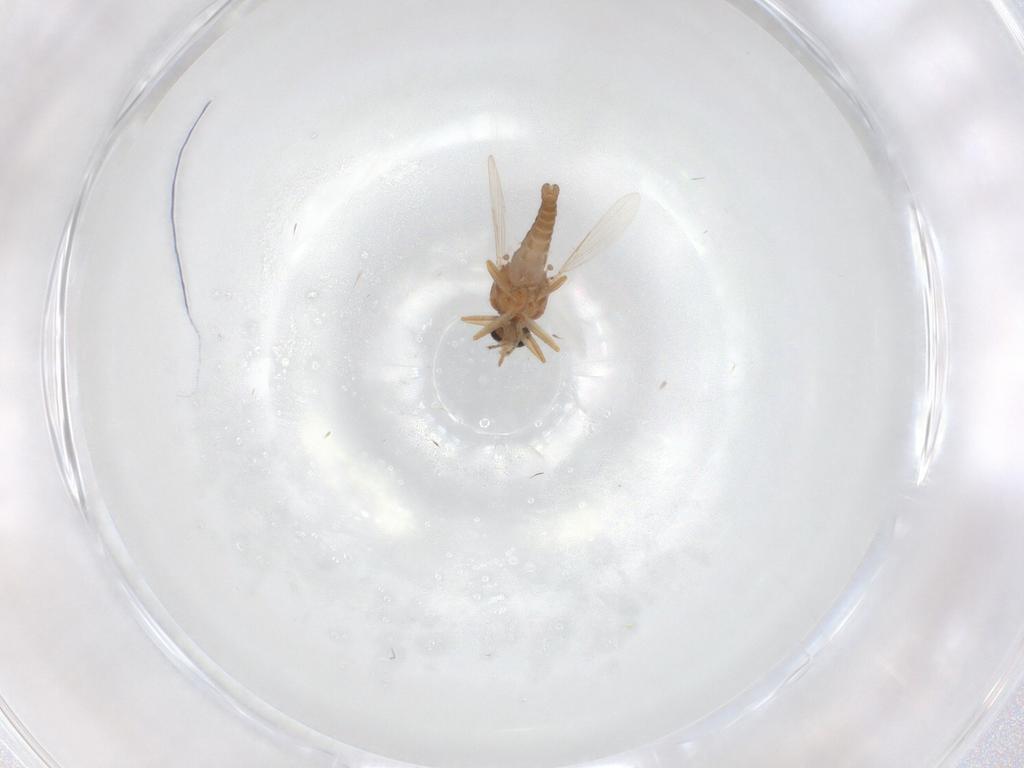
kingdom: Animalia
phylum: Arthropoda
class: Insecta
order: Diptera
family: Ceratopogonidae
